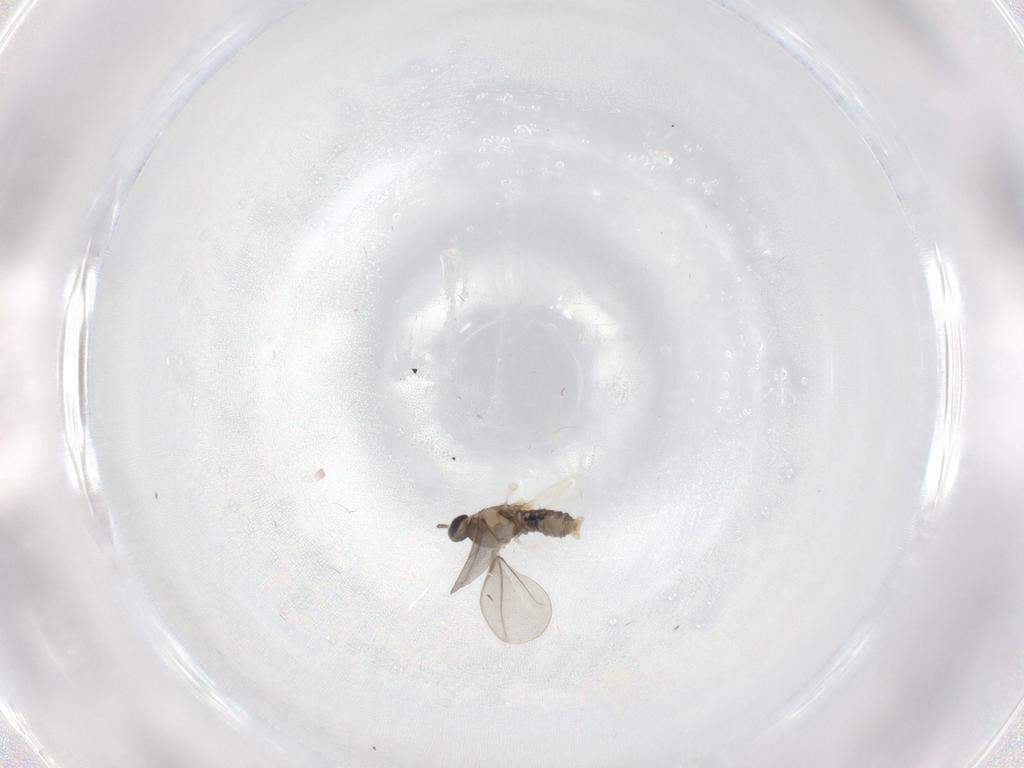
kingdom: Animalia
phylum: Arthropoda
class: Insecta
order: Diptera
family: Cecidomyiidae
